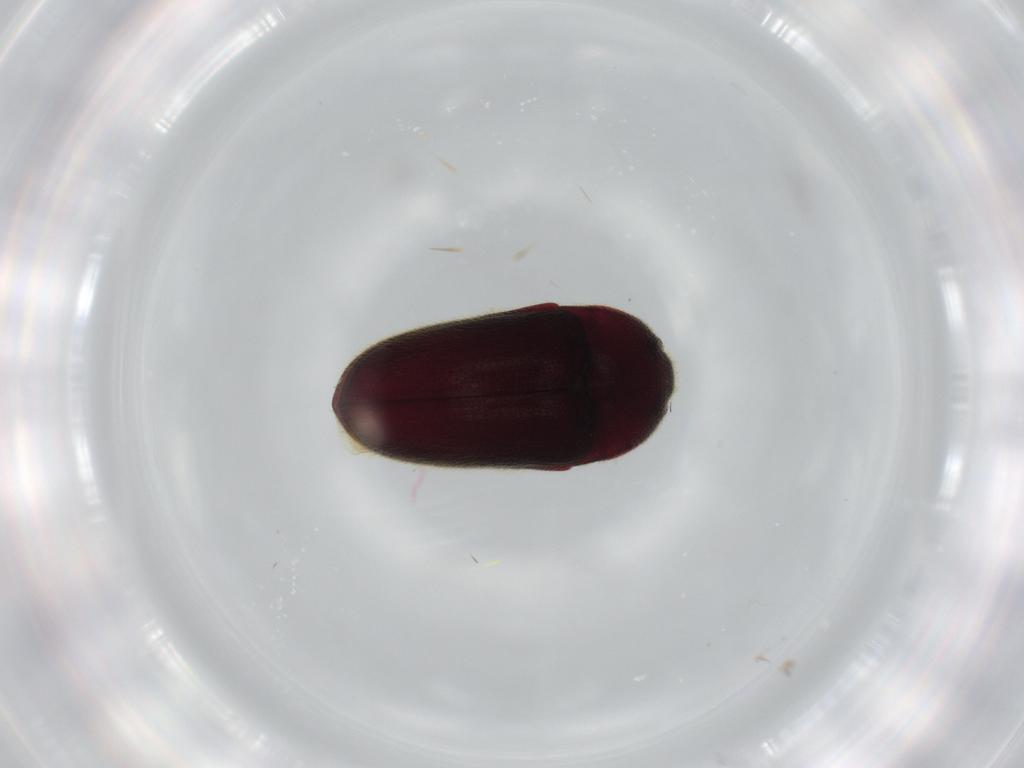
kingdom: Animalia
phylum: Arthropoda
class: Insecta
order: Coleoptera
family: Throscidae
